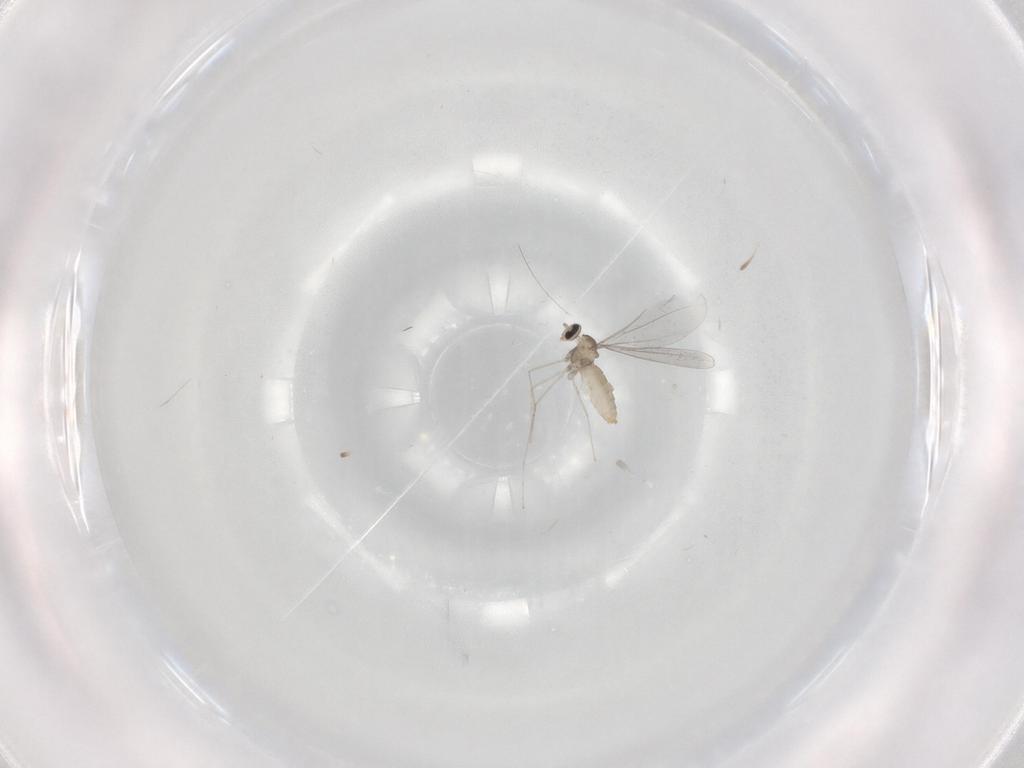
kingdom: Animalia
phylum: Arthropoda
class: Insecta
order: Diptera
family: Cecidomyiidae
